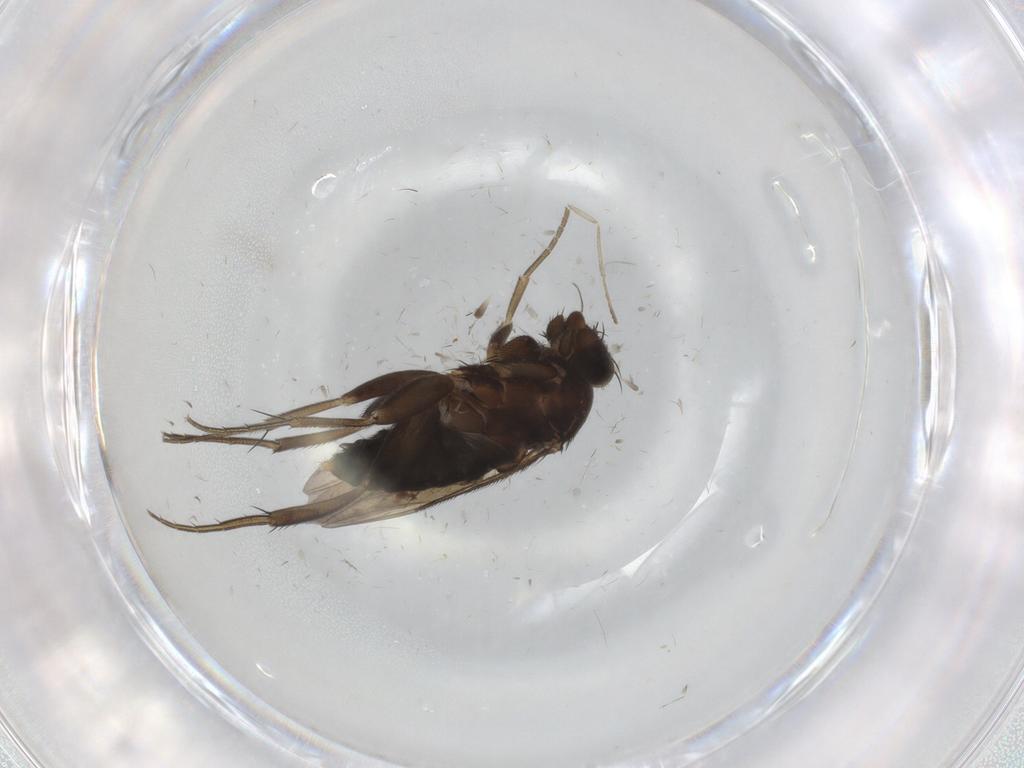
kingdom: Animalia
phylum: Arthropoda
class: Insecta
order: Diptera
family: Phoridae
